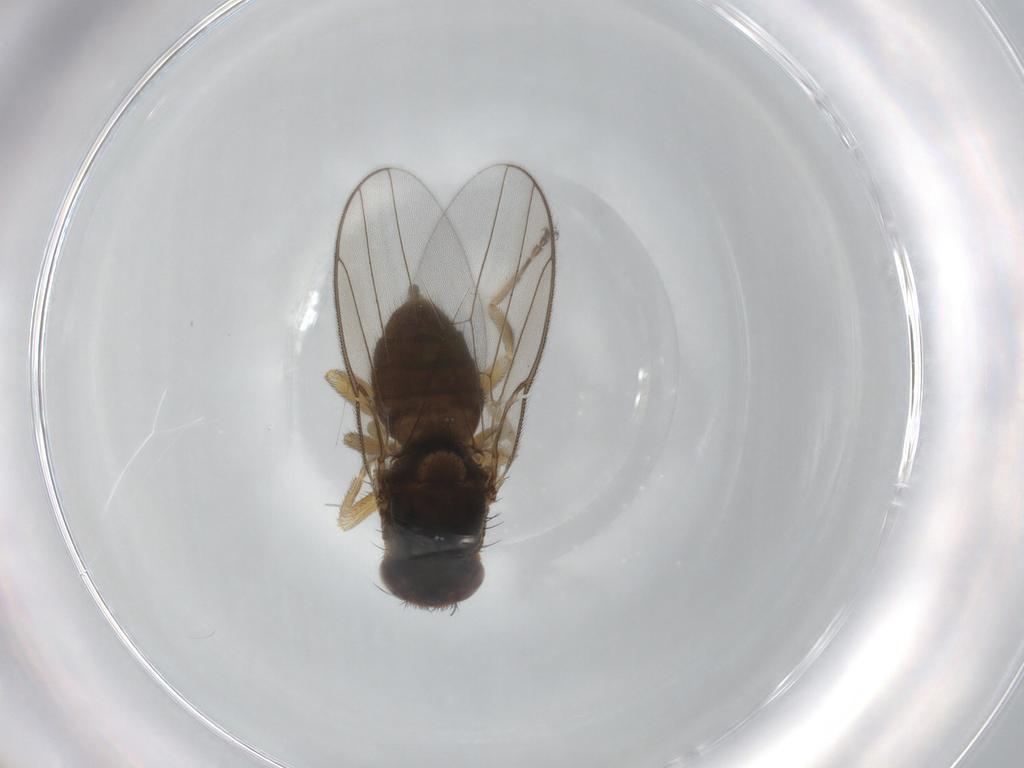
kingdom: Animalia
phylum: Arthropoda
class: Insecta
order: Diptera
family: Chloropidae
